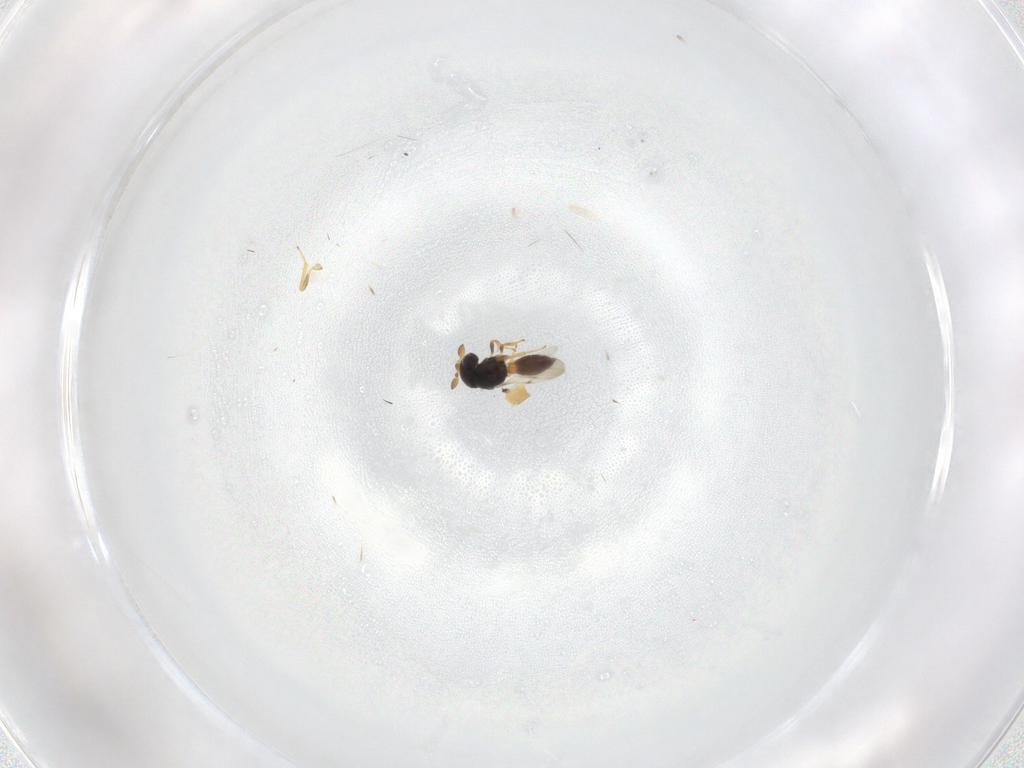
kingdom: Animalia
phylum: Arthropoda
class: Insecta
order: Hymenoptera
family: Scelionidae
